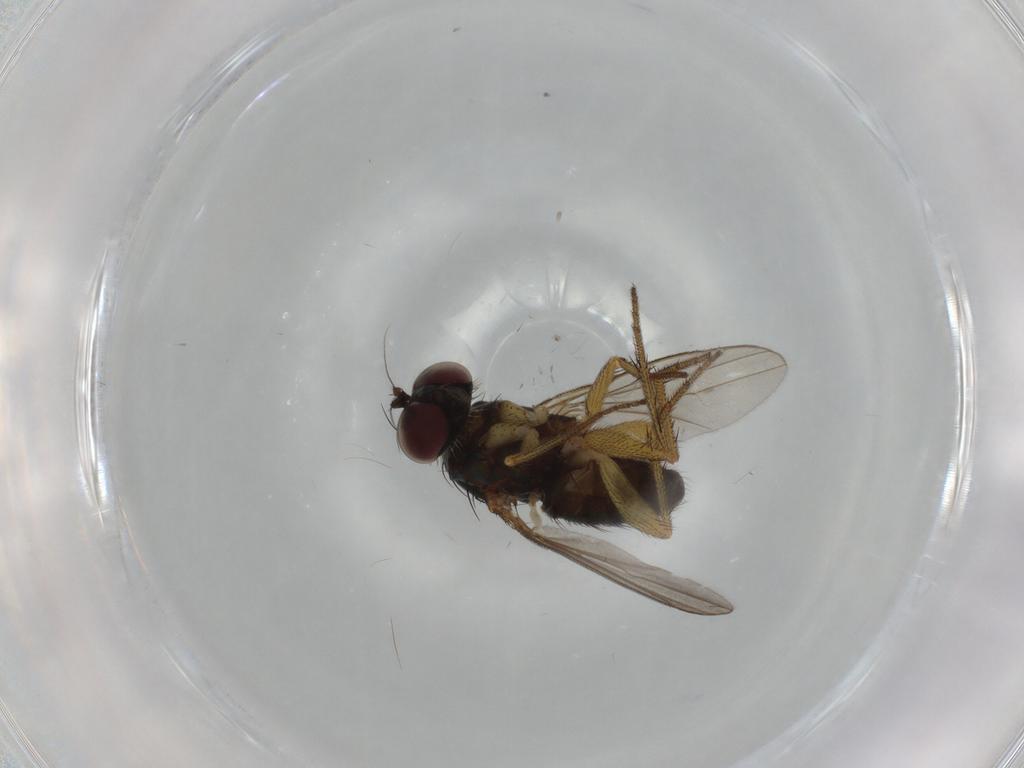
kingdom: Animalia
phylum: Arthropoda
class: Insecta
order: Diptera
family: Dolichopodidae
